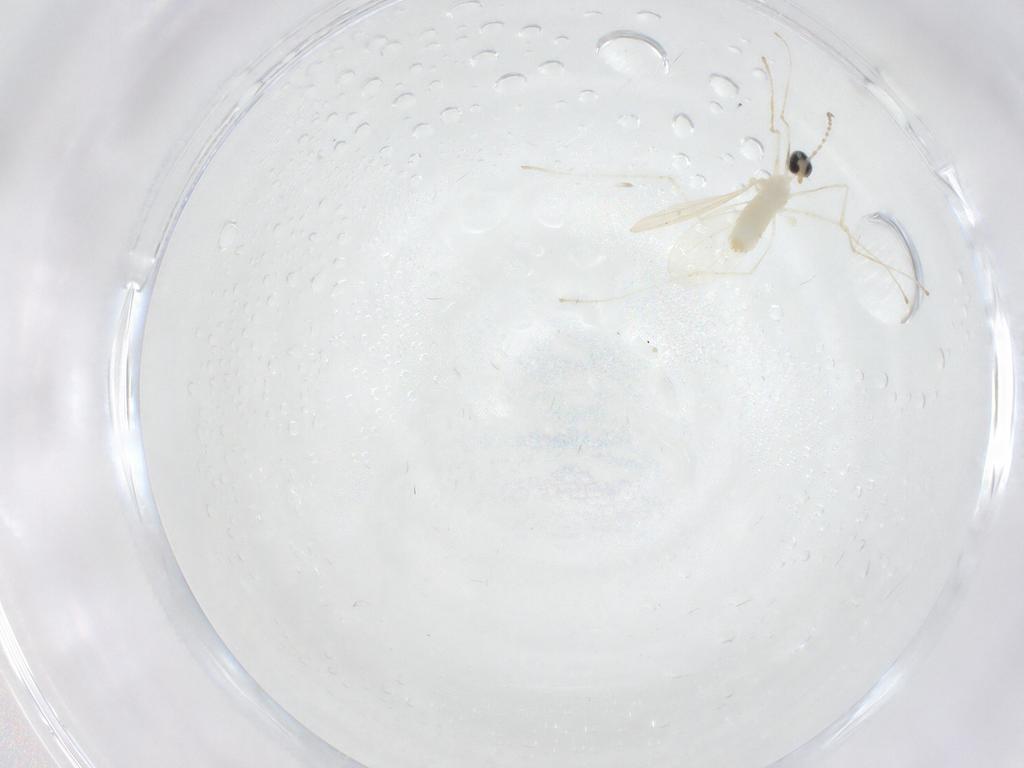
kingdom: Animalia
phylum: Arthropoda
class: Insecta
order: Diptera
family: Cecidomyiidae
